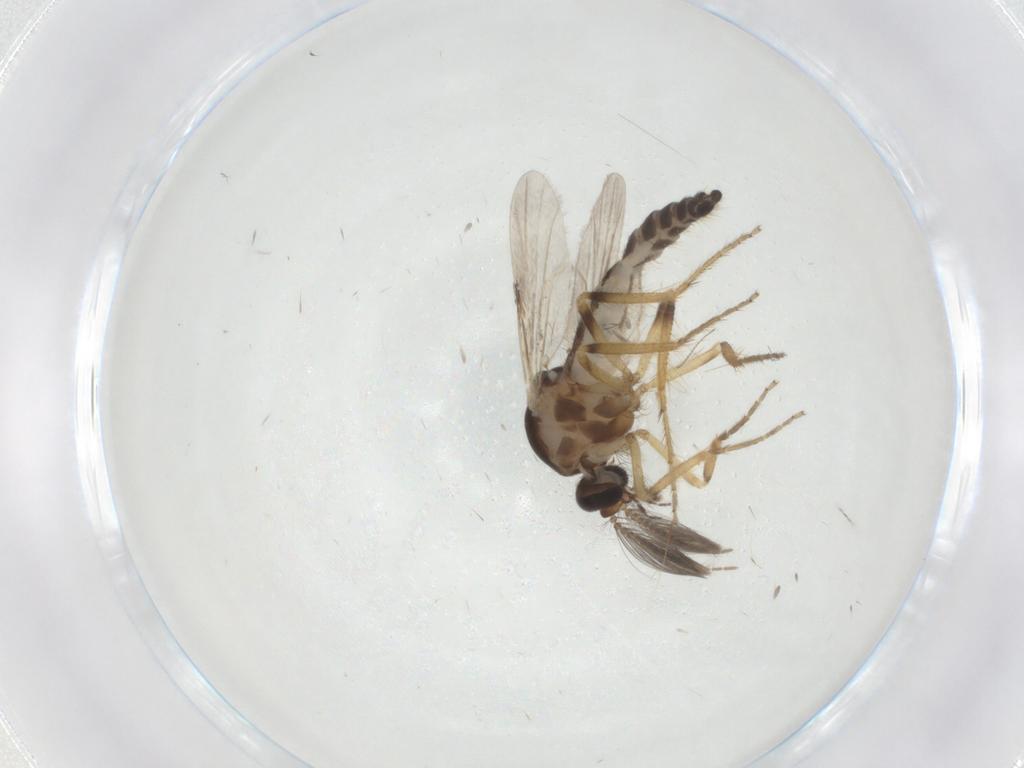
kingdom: Animalia
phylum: Arthropoda
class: Insecta
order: Diptera
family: Ceratopogonidae
